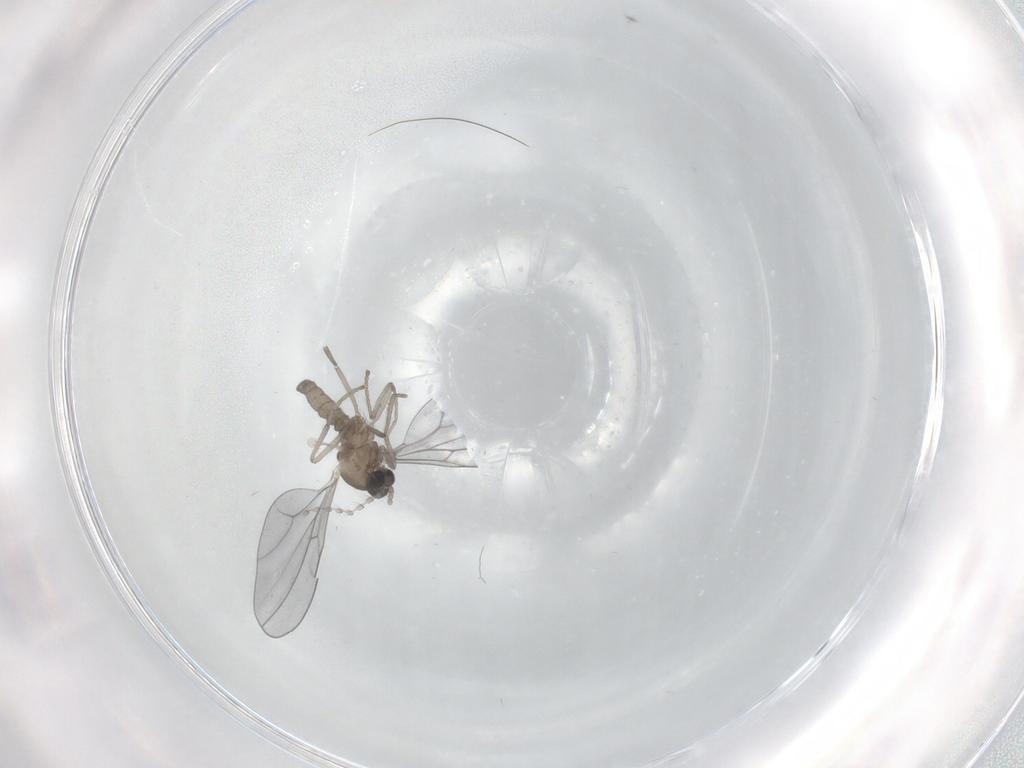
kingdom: Animalia
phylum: Arthropoda
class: Insecta
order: Diptera
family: Cecidomyiidae
